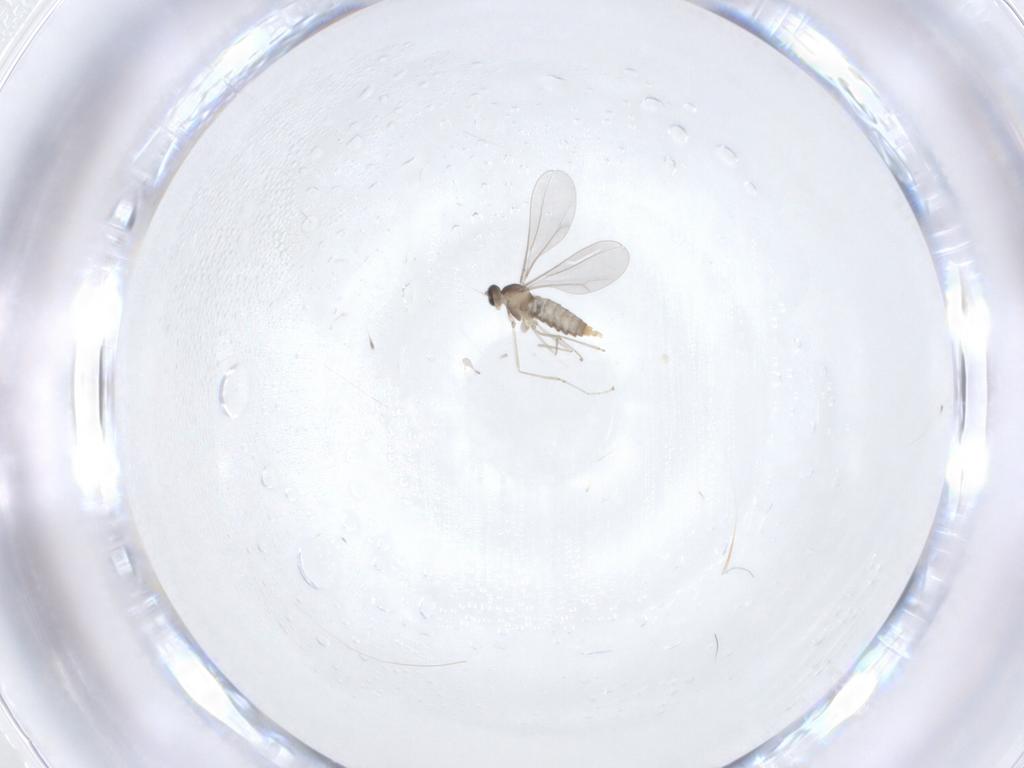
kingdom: Animalia
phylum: Arthropoda
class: Insecta
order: Diptera
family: Cecidomyiidae
